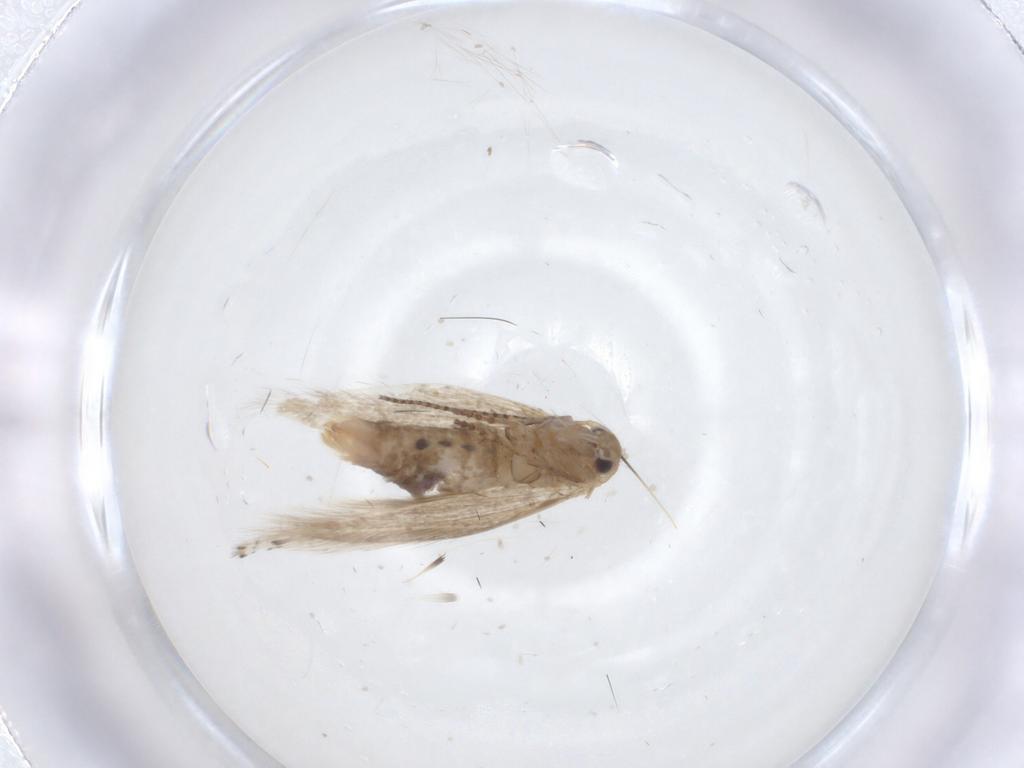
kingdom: Animalia
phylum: Arthropoda
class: Insecta
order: Lepidoptera
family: Bucculatricidae
